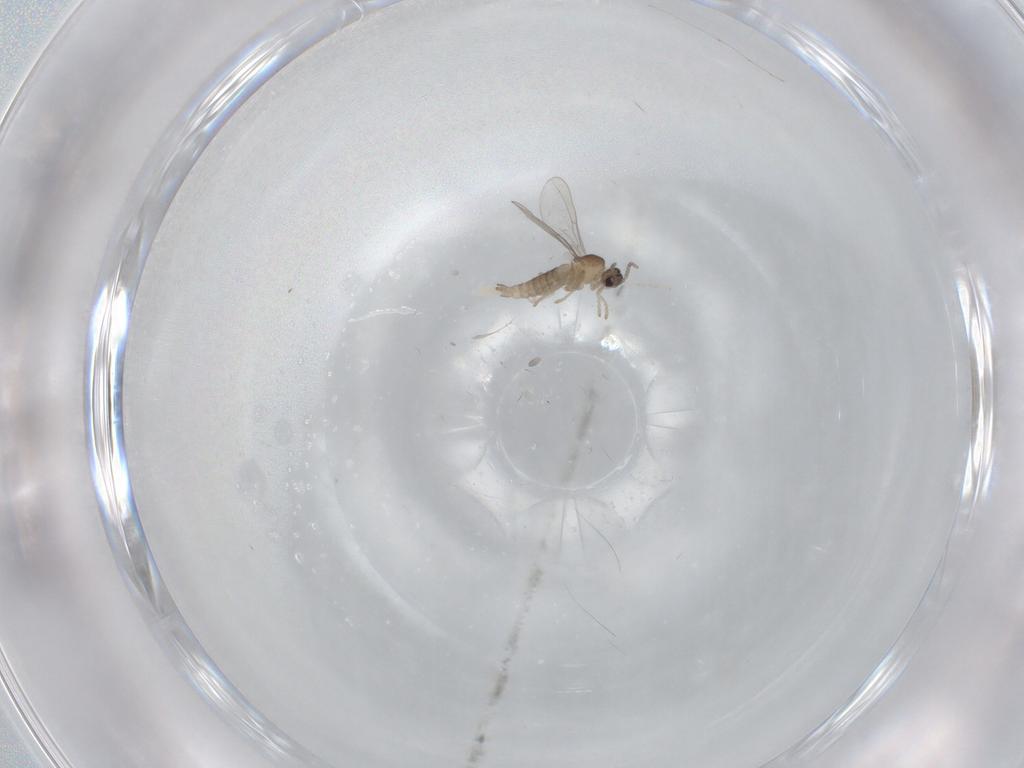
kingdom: Animalia
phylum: Arthropoda
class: Insecta
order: Diptera
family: Cecidomyiidae
